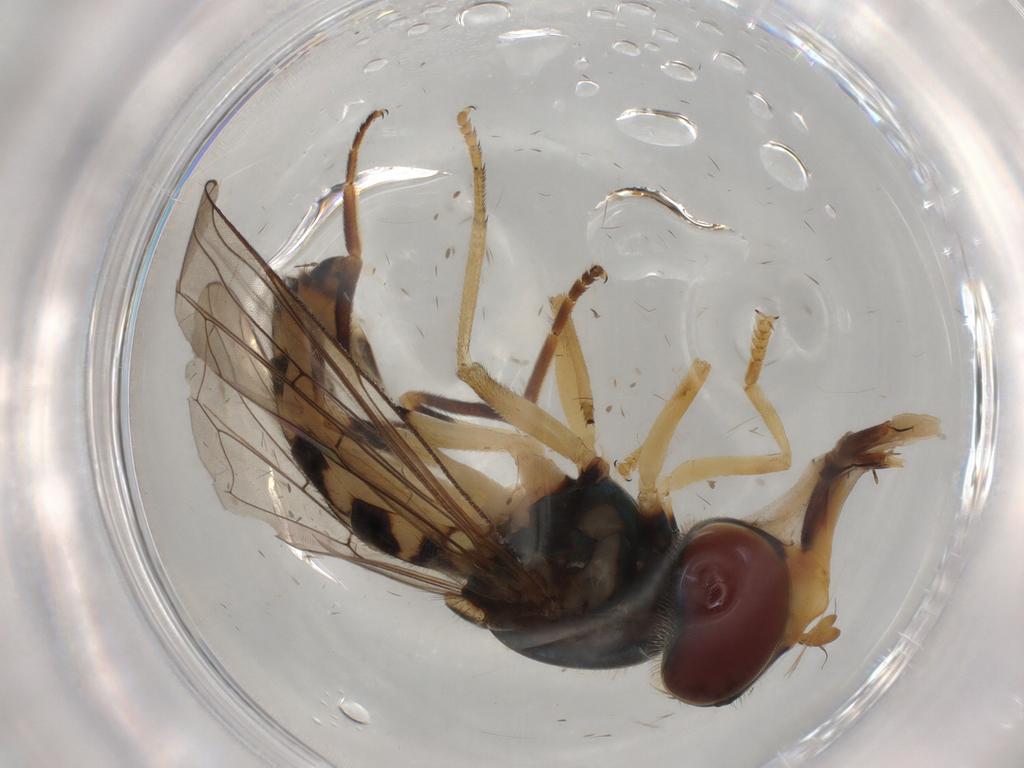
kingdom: Animalia
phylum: Arthropoda
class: Insecta
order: Diptera
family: Syrphidae
